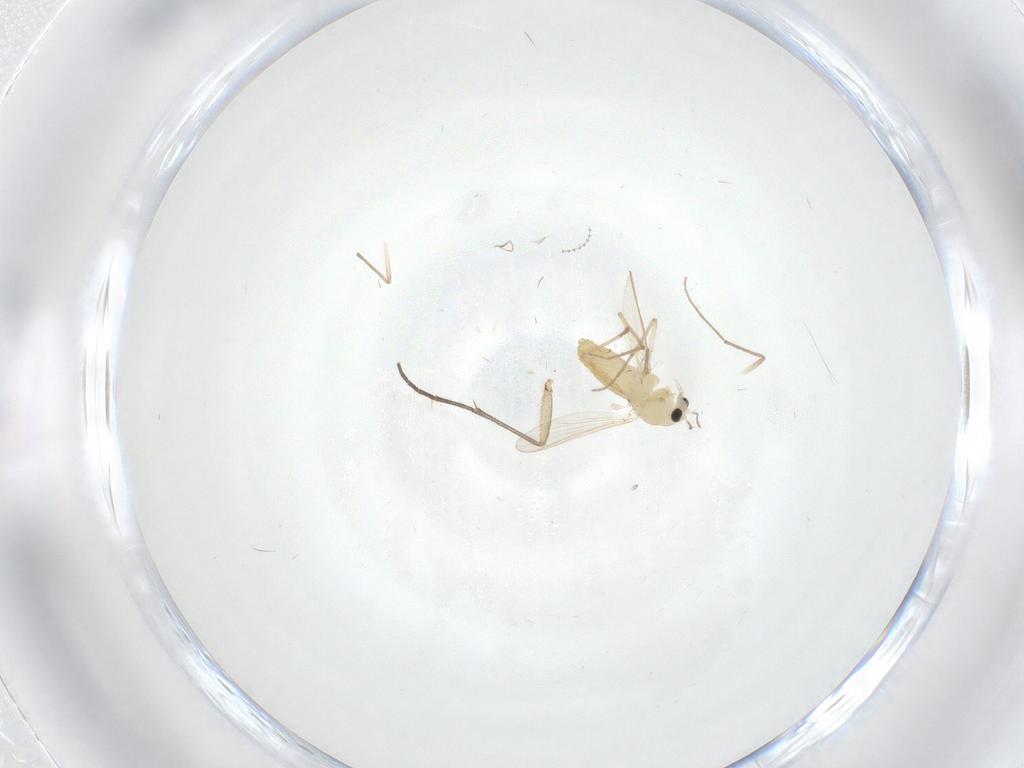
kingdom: Animalia
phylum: Arthropoda
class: Insecta
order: Diptera
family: Chironomidae
